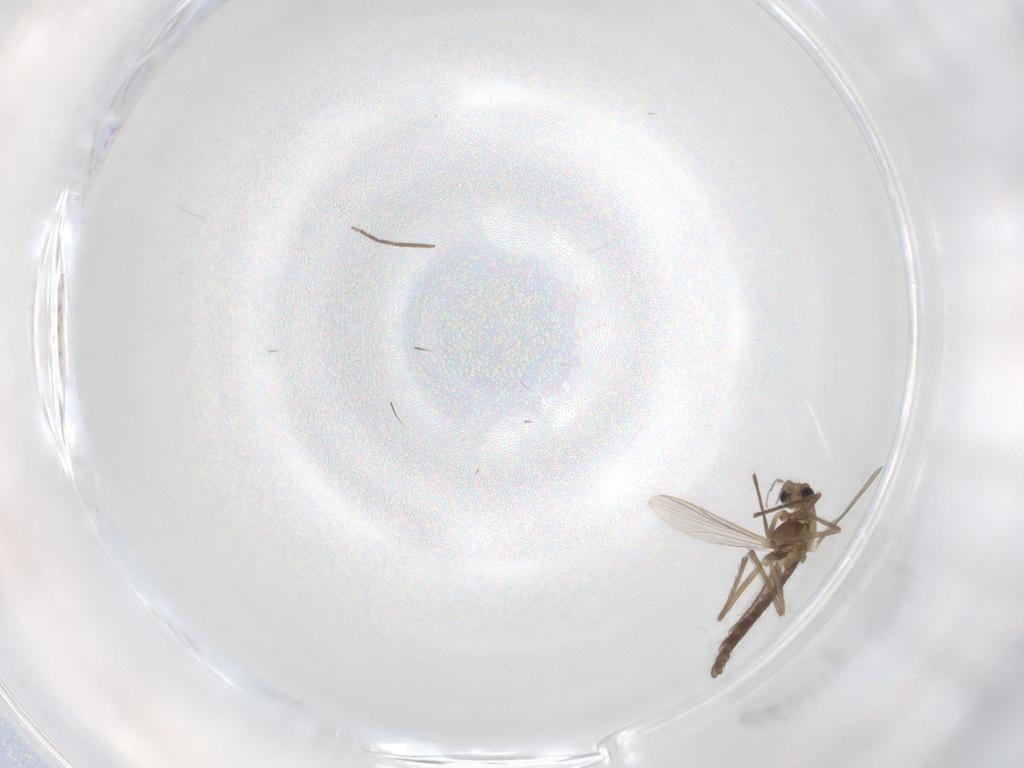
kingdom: Animalia
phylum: Arthropoda
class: Insecta
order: Diptera
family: Chironomidae
